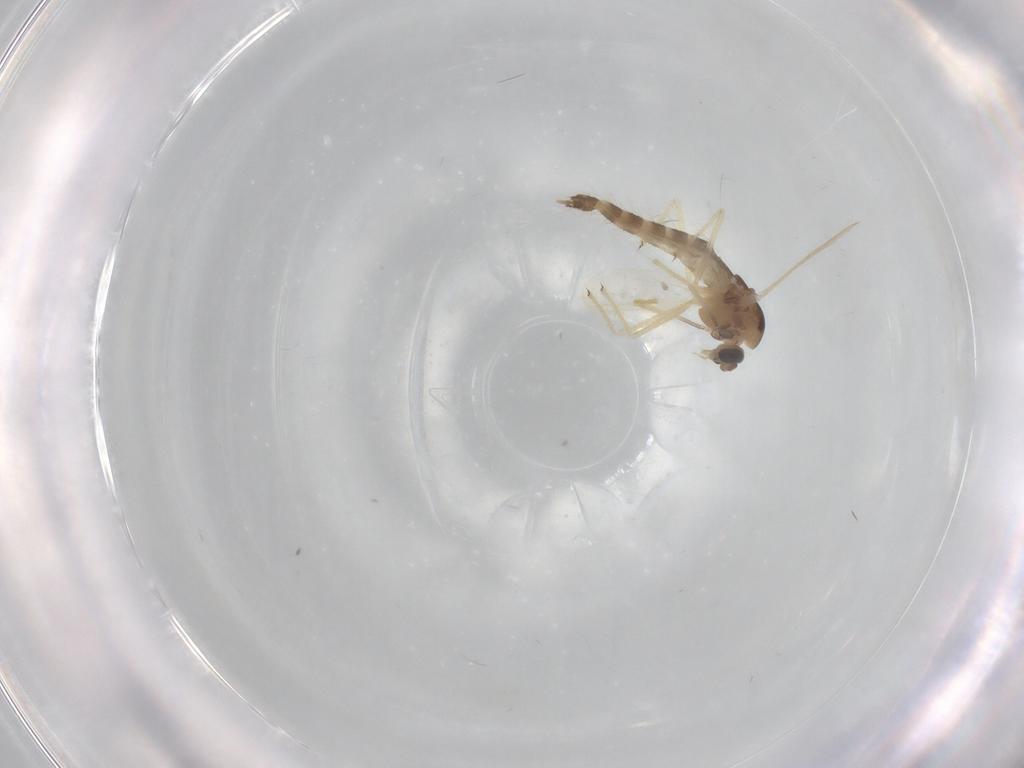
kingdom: Animalia
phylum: Arthropoda
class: Insecta
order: Diptera
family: Chironomidae
